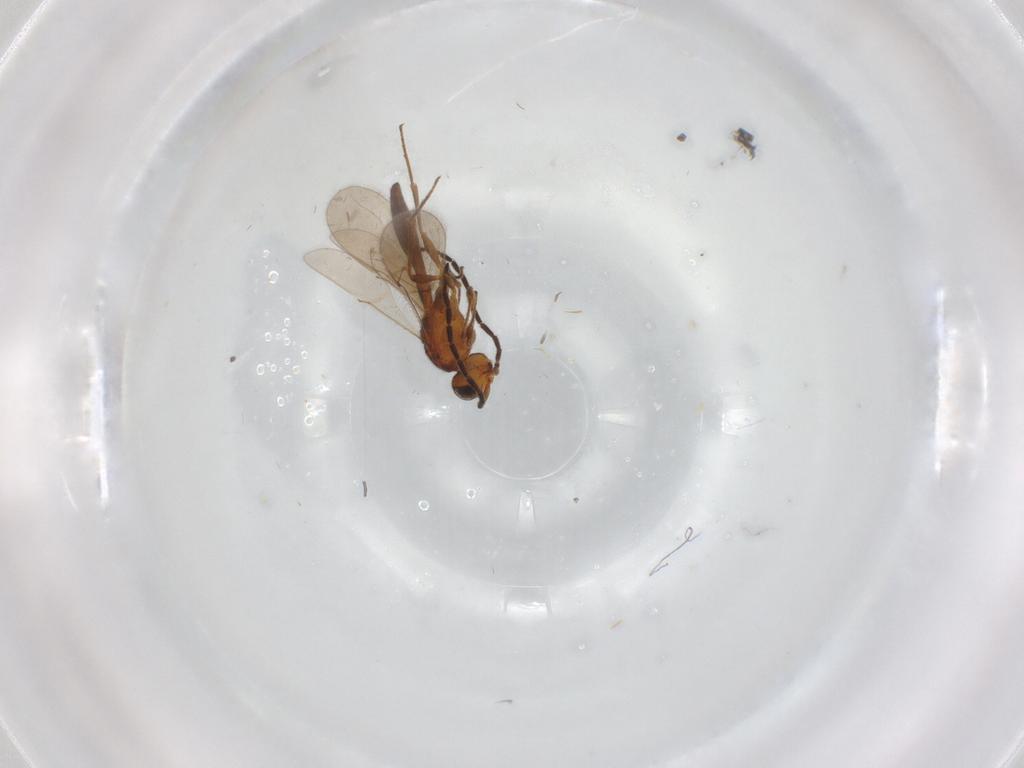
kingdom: Animalia
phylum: Arthropoda
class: Insecta
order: Hymenoptera
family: Scelionidae
